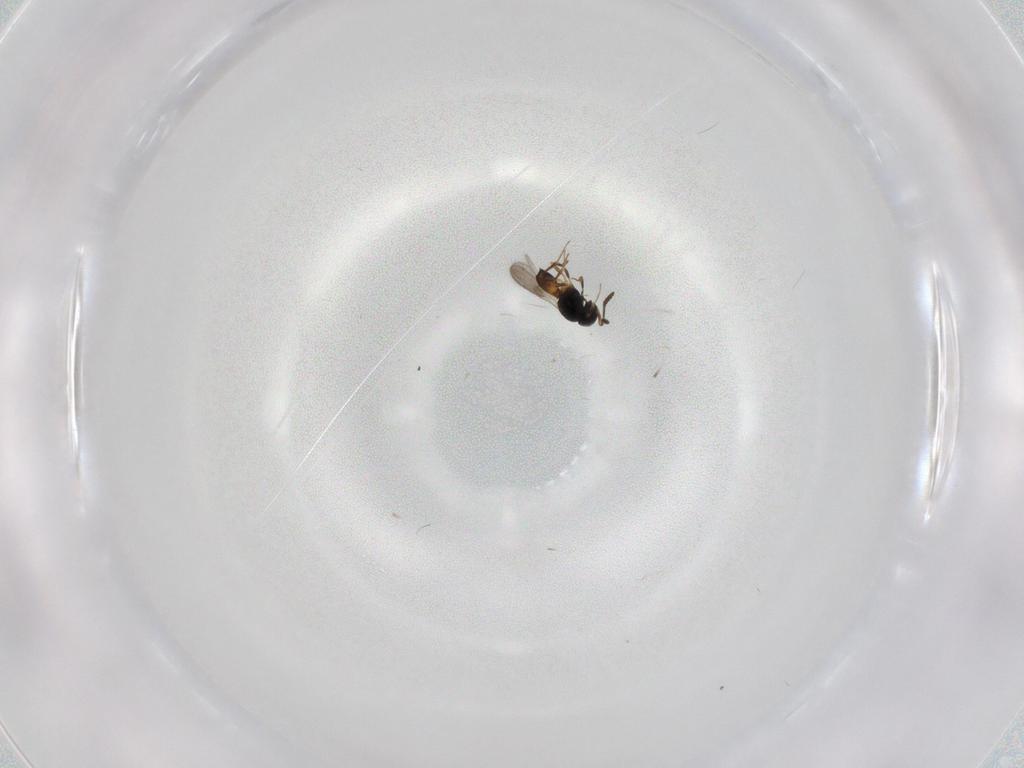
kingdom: Animalia
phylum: Arthropoda
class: Insecta
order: Hymenoptera
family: Scelionidae
